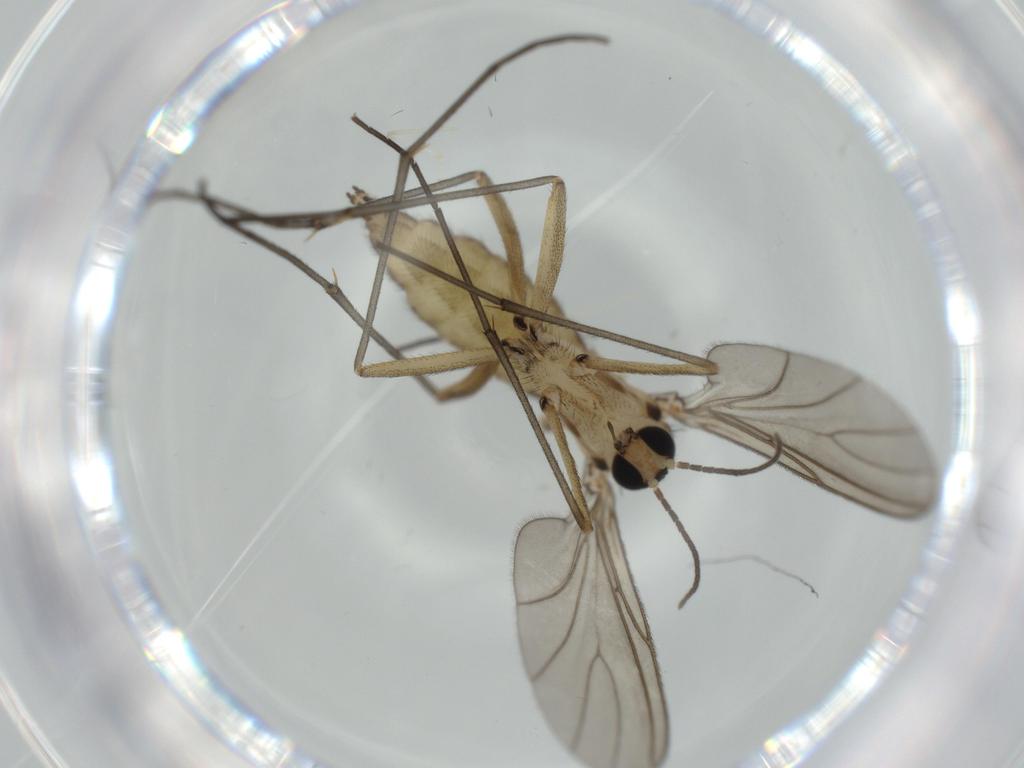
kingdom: Animalia
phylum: Arthropoda
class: Insecta
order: Diptera
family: Sciaridae
